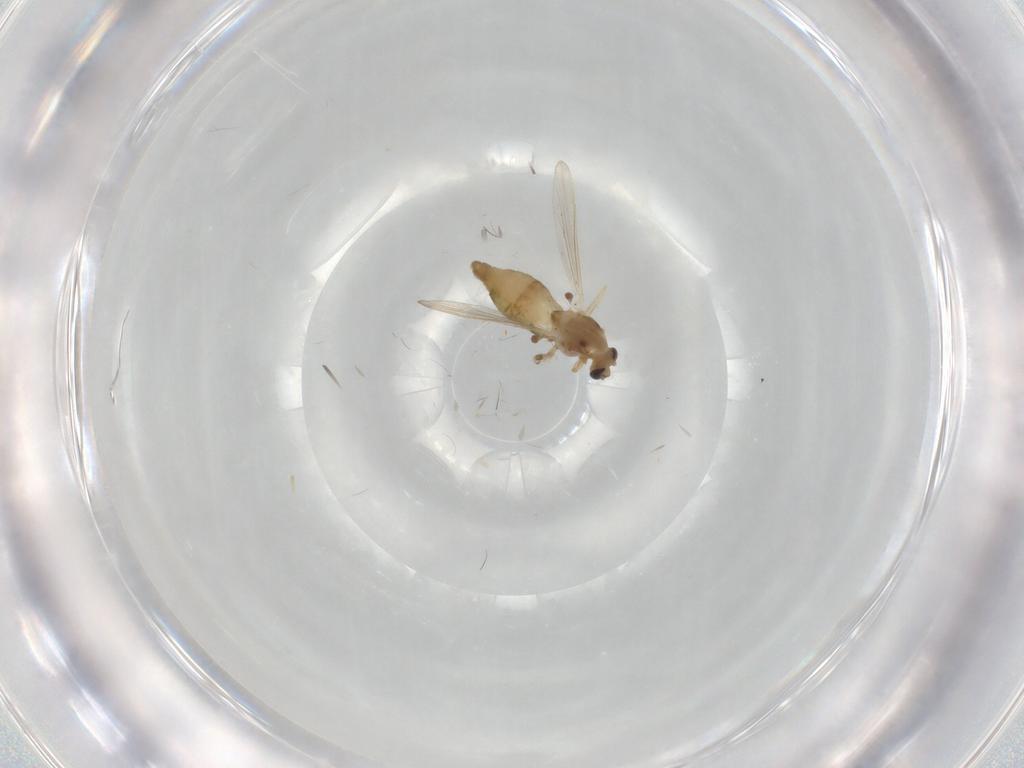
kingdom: Animalia
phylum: Arthropoda
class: Insecta
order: Diptera
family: Chironomidae
